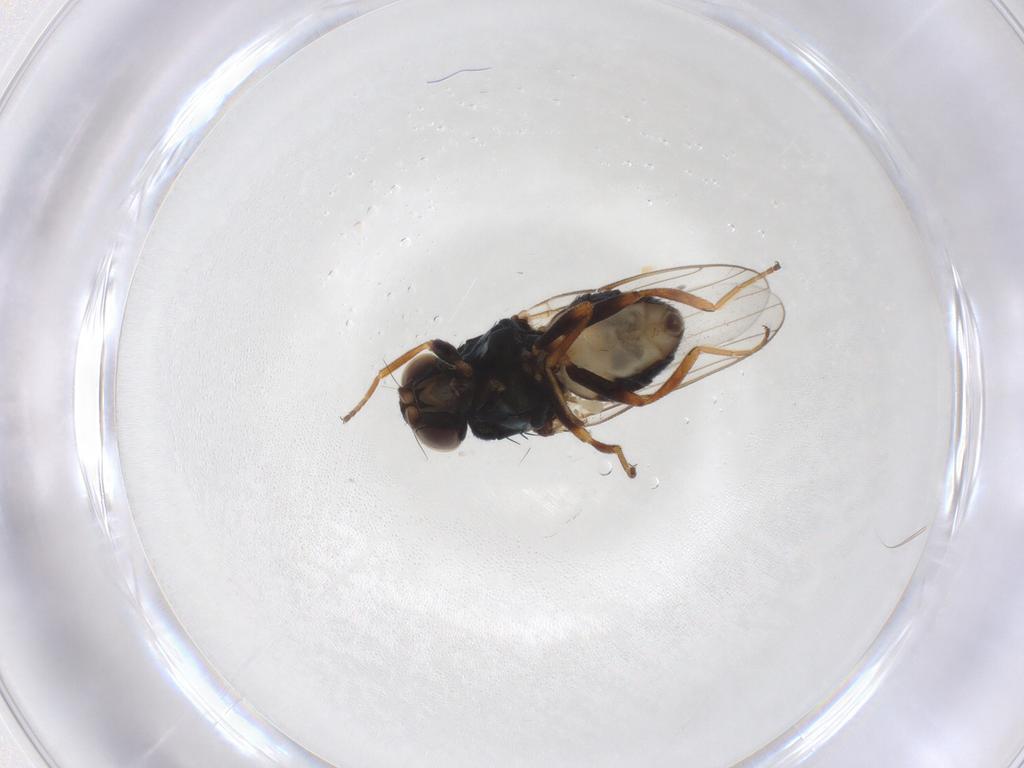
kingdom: Animalia
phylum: Arthropoda
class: Insecta
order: Diptera
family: Chloropidae
